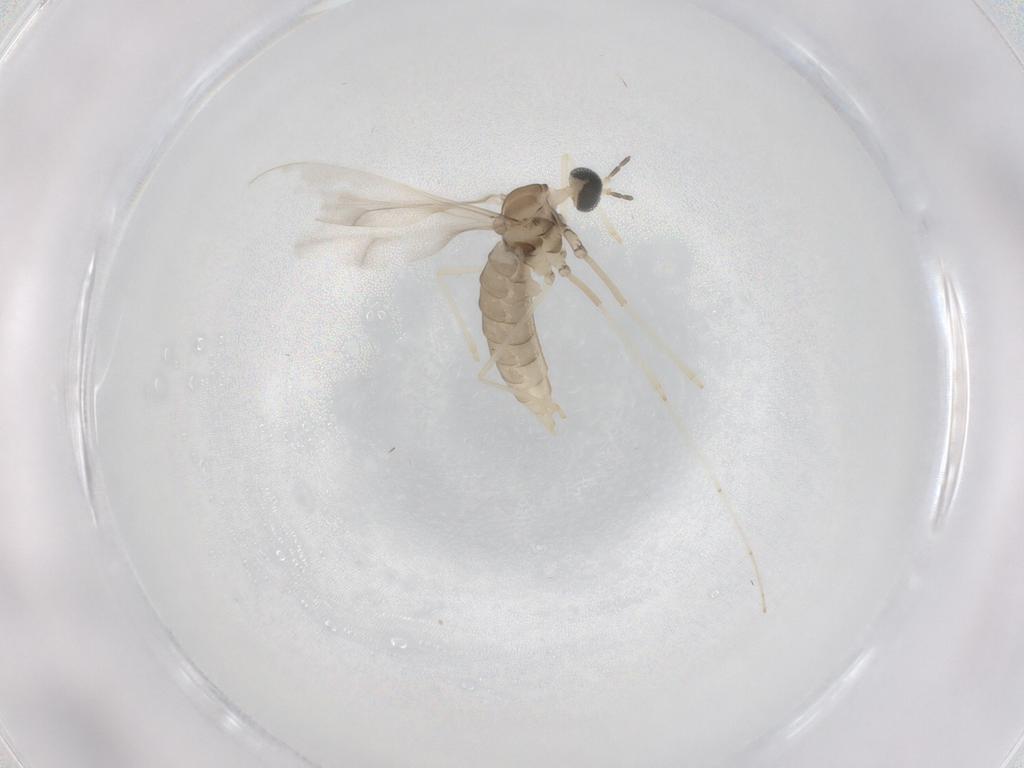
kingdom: Animalia
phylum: Arthropoda
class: Insecta
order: Diptera
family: Cecidomyiidae
